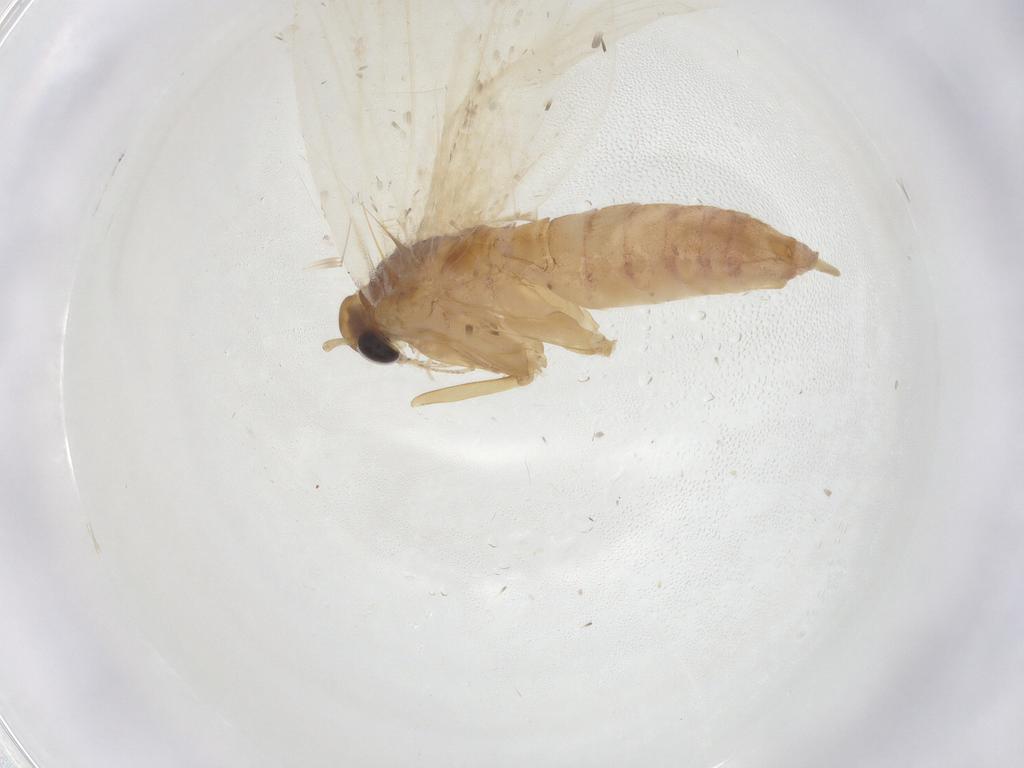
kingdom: Animalia
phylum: Arthropoda
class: Insecta
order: Lepidoptera
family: Oecophoridae
